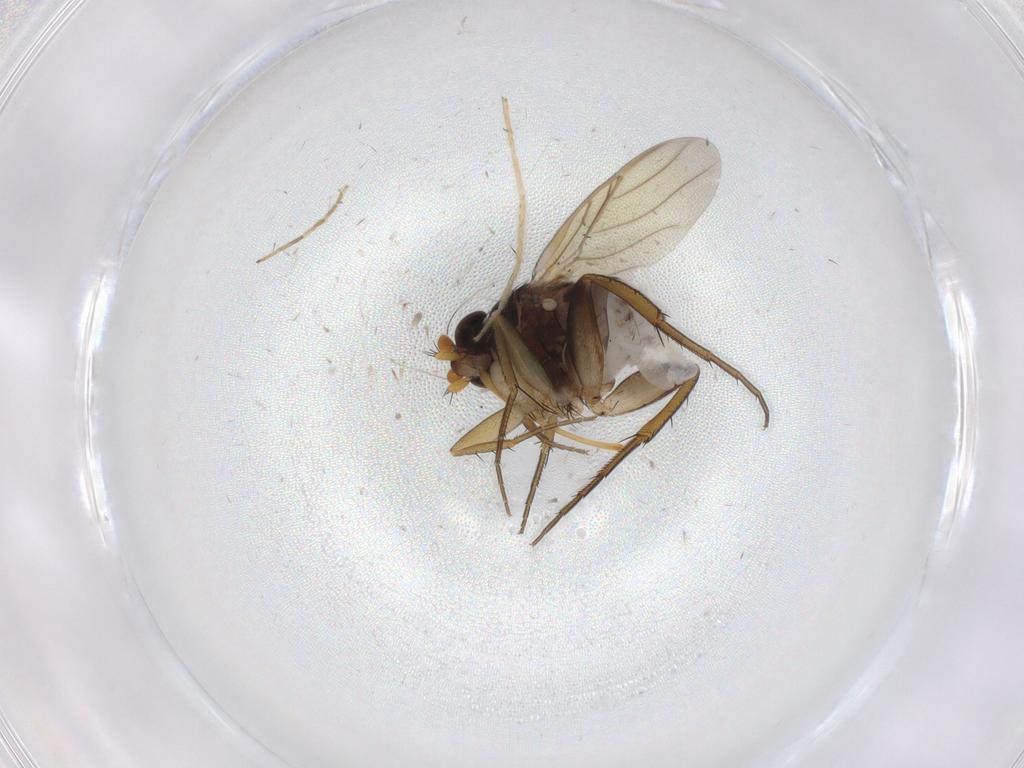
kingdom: Animalia
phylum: Arthropoda
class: Insecta
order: Diptera
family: Phoridae
